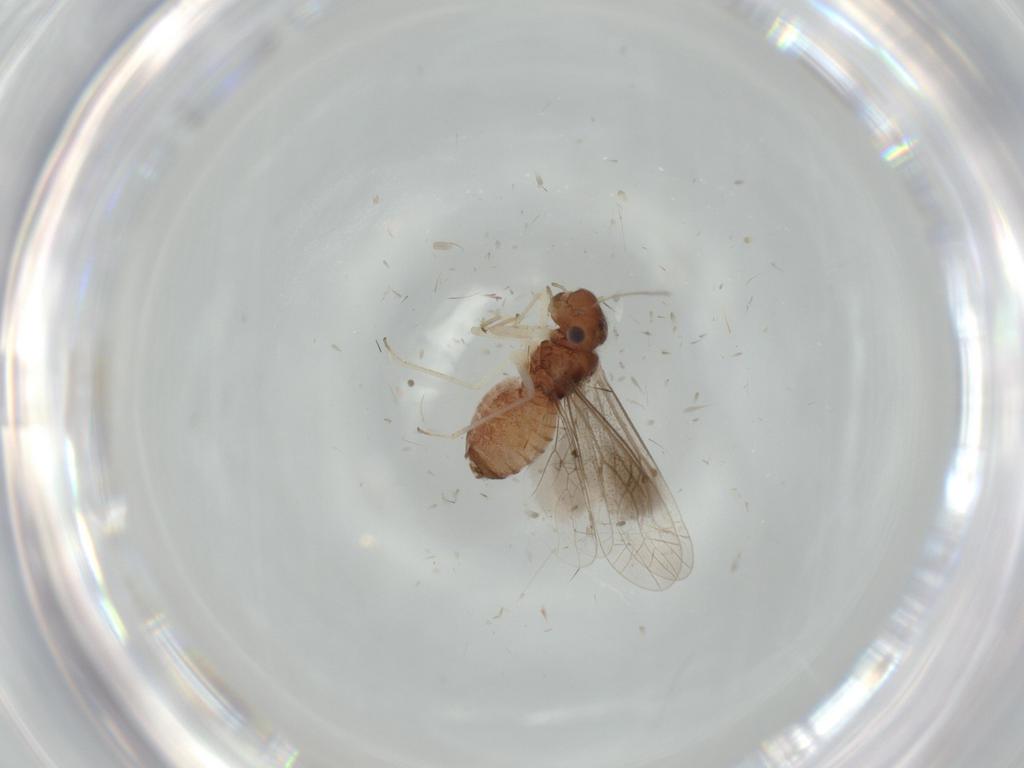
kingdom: Animalia
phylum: Arthropoda
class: Insecta
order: Psocodea
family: Caeciliusidae
